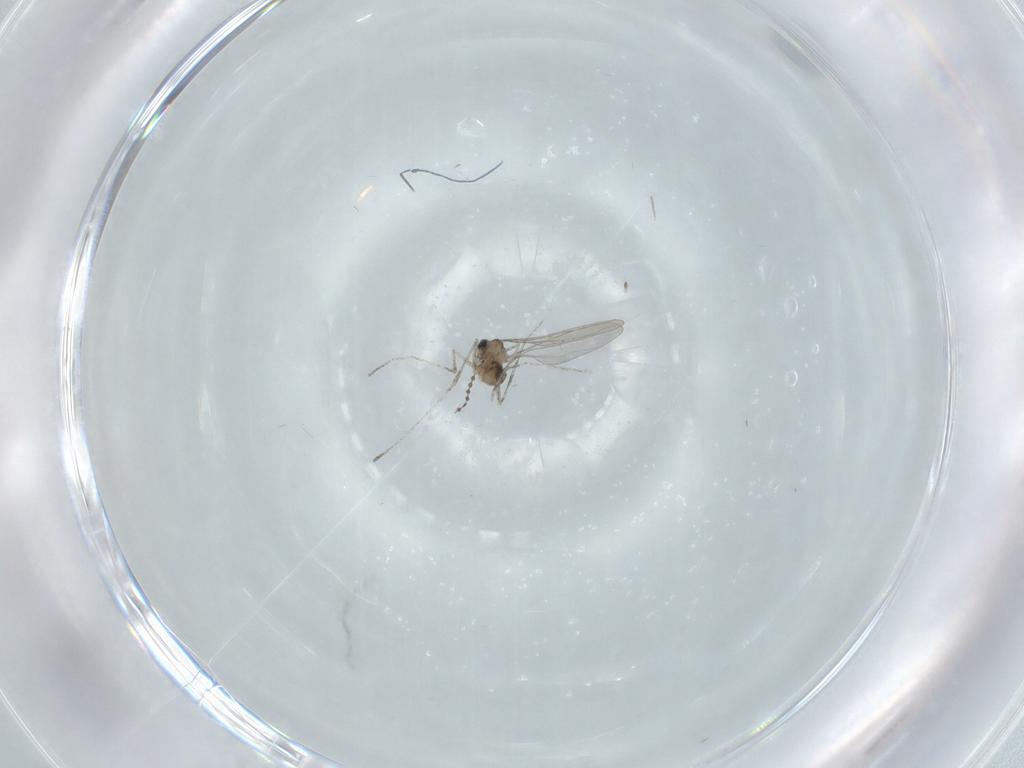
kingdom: Animalia
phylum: Arthropoda
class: Insecta
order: Diptera
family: Cecidomyiidae
